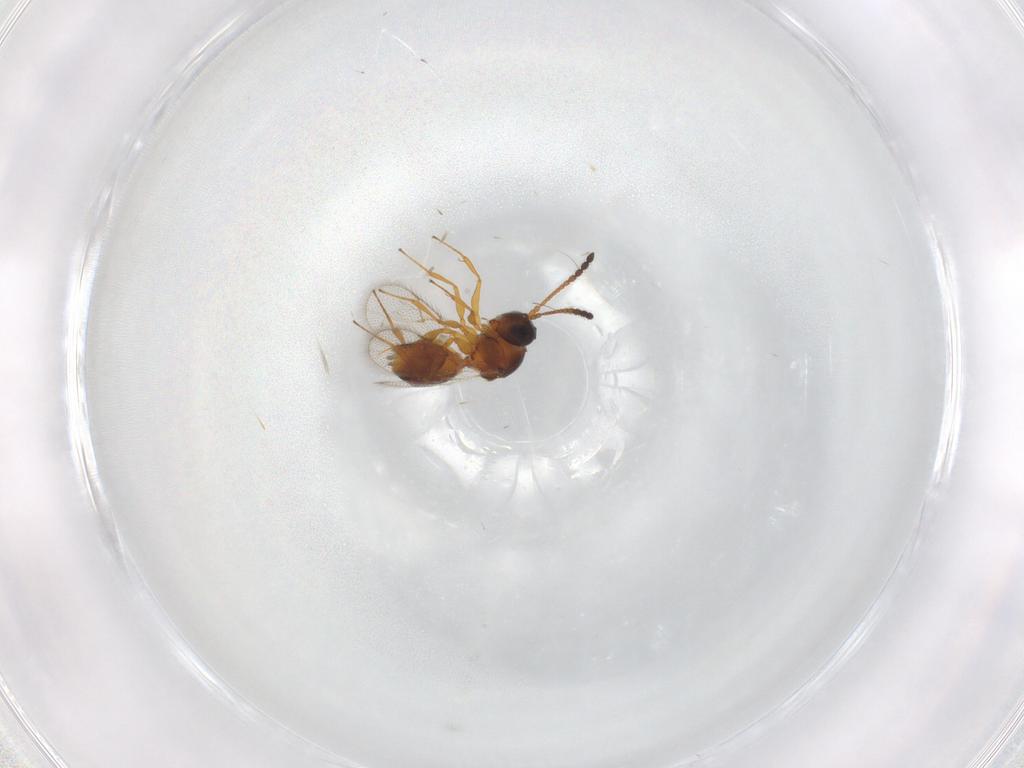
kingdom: Animalia
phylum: Arthropoda
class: Insecta
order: Hymenoptera
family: Figitidae
